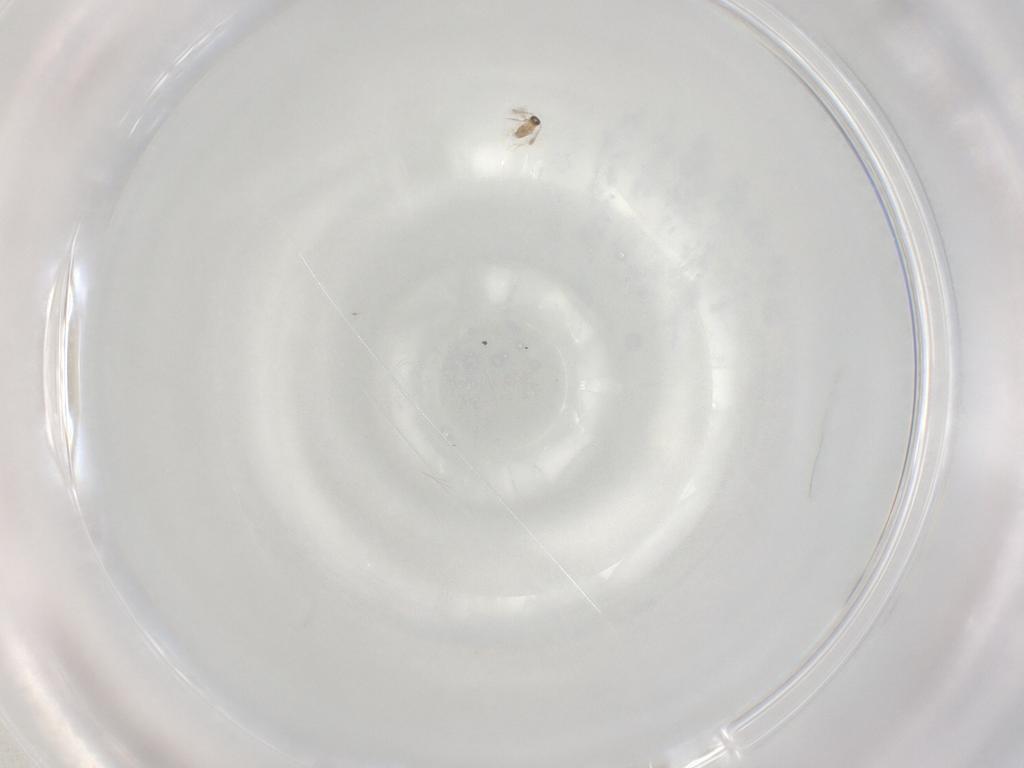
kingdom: Animalia
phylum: Arthropoda
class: Insecta
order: Hymenoptera
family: Mymaridae
